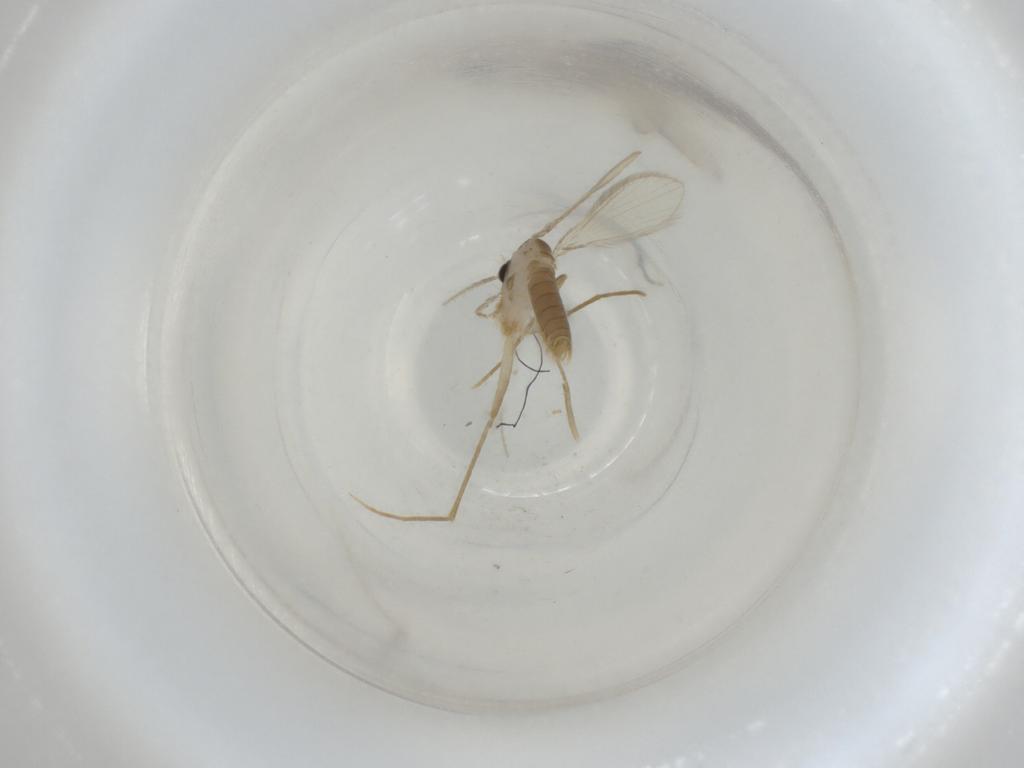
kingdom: Animalia
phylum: Arthropoda
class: Insecta
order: Diptera
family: Psychodidae
